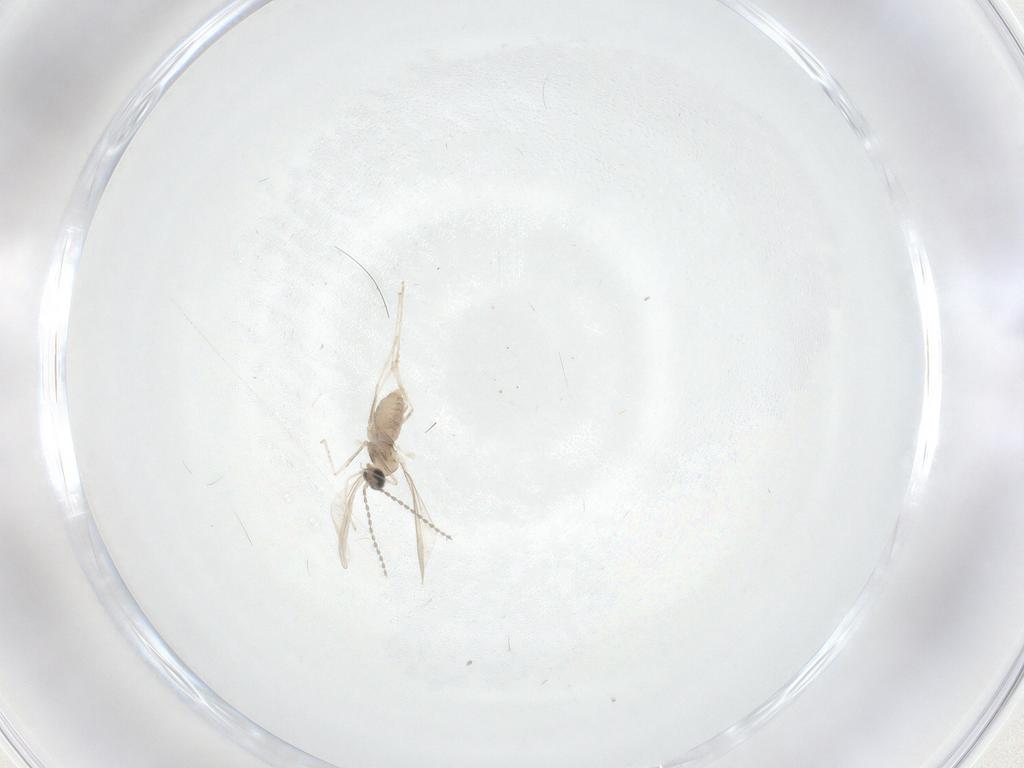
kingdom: Animalia
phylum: Arthropoda
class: Insecta
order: Diptera
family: Cecidomyiidae
